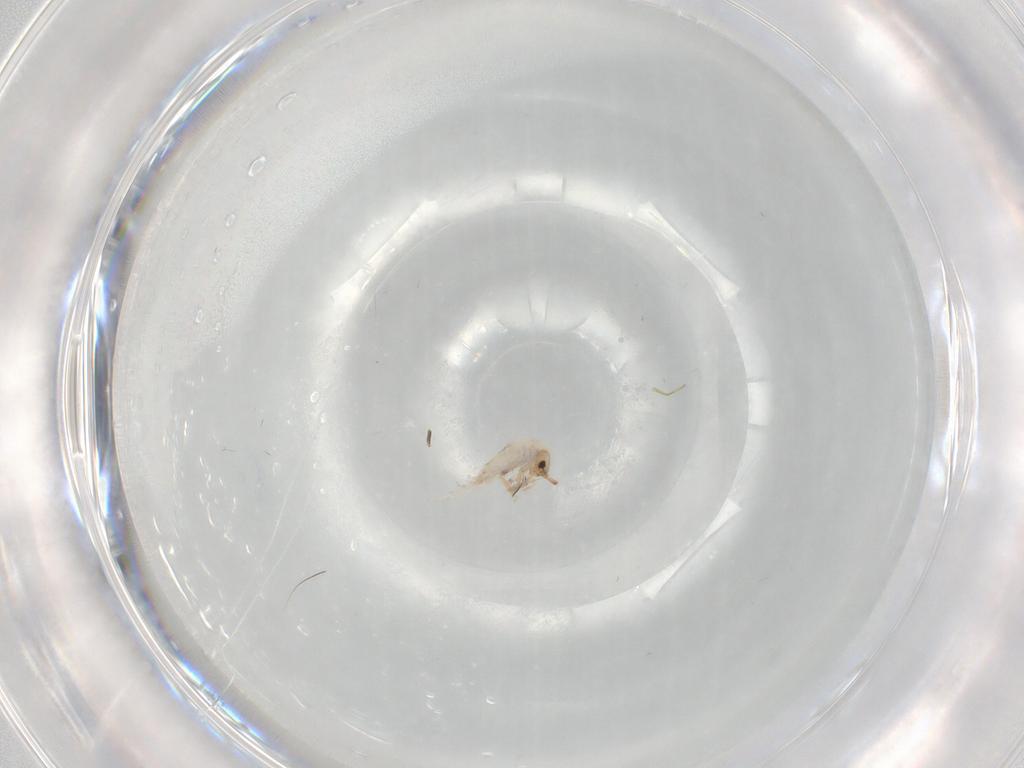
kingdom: Animalia
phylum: Arthropoda
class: Collembola
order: Entomobryomorpha
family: Entomobryidae
